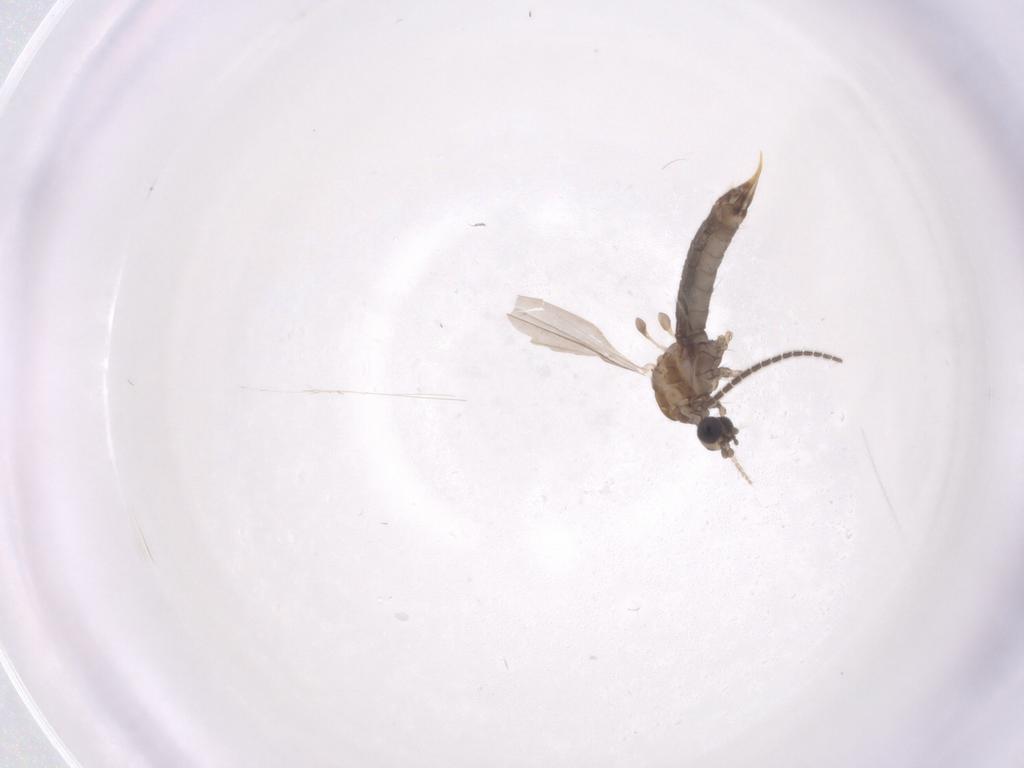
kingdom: Animalia
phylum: Arthropoda
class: Insecta
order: Diptera
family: Limoniidae
